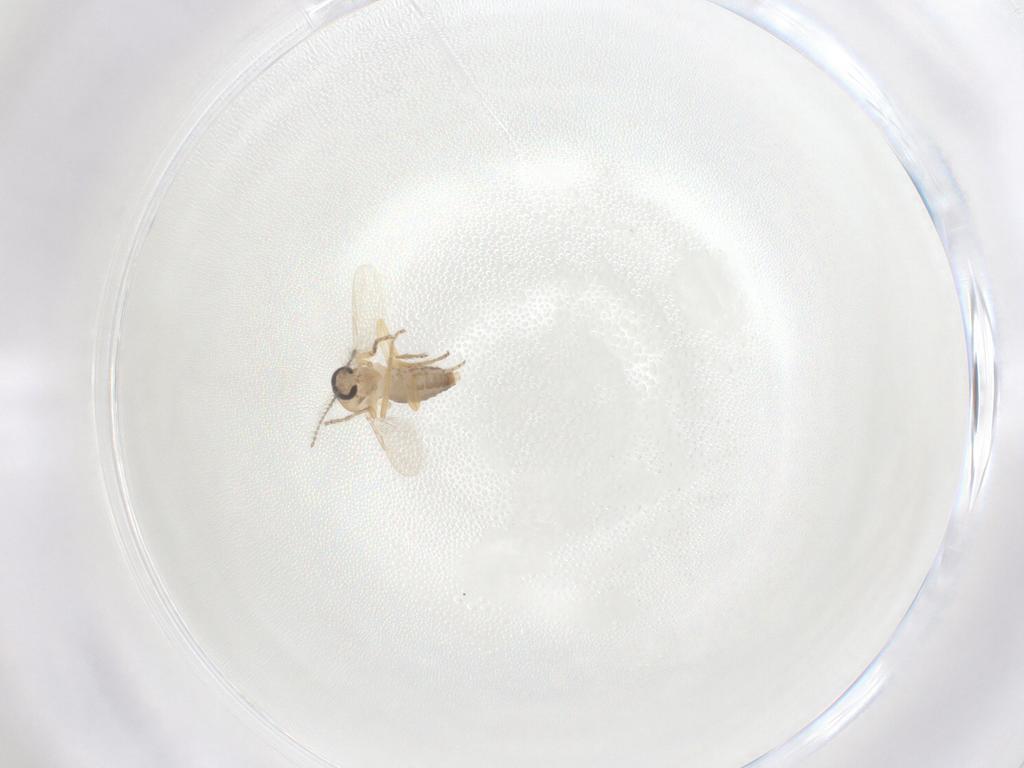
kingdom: Animalia
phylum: Arthropoda
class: Insecta
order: Diptera
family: Ceratopogonidae
